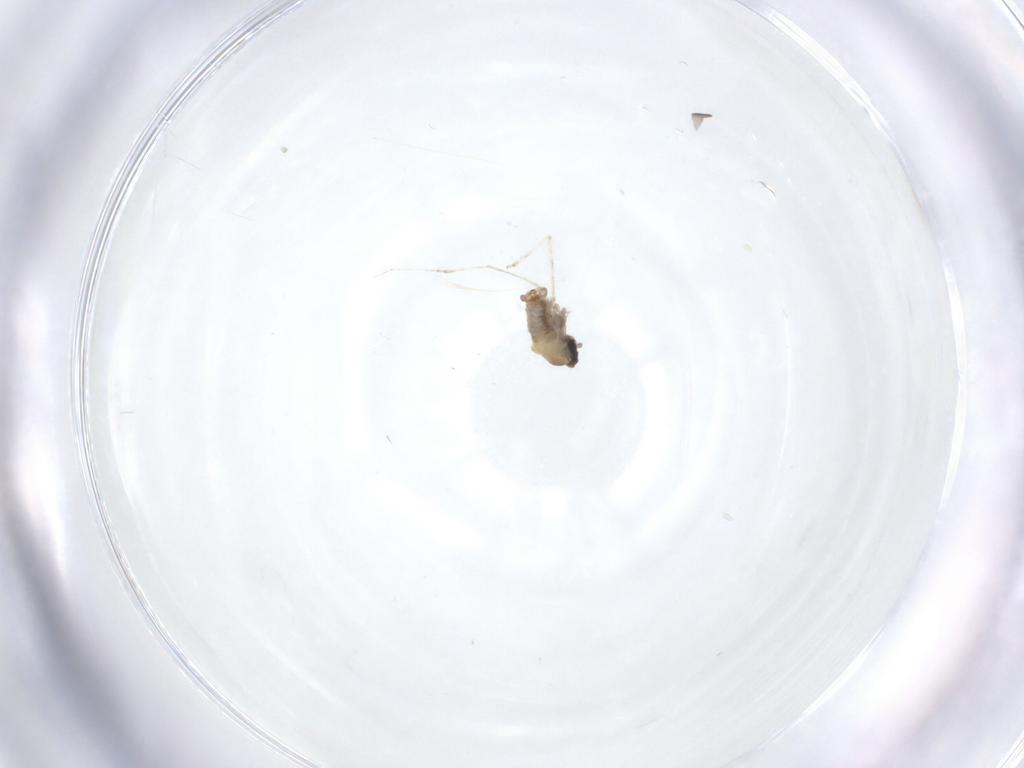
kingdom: Animalia
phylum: Arthropoda
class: Insecta
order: Diptera
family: Cecidomyiidae
